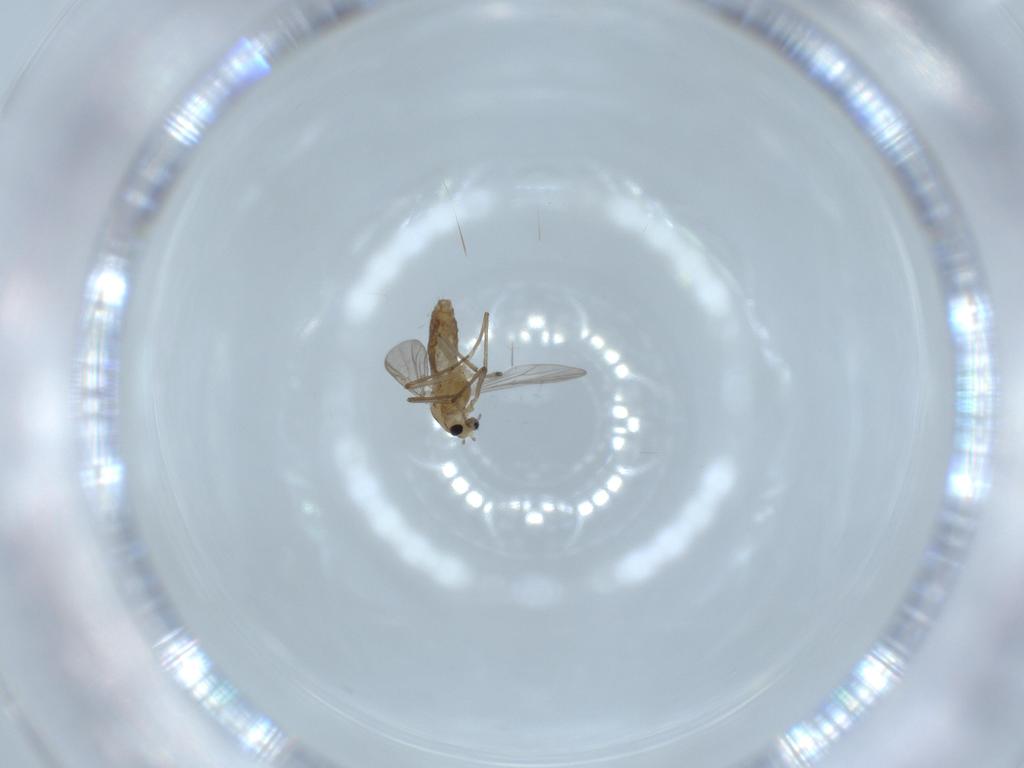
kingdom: Animalia
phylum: Arthropoda
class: Insecta
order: Diptera
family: Chironomidae
